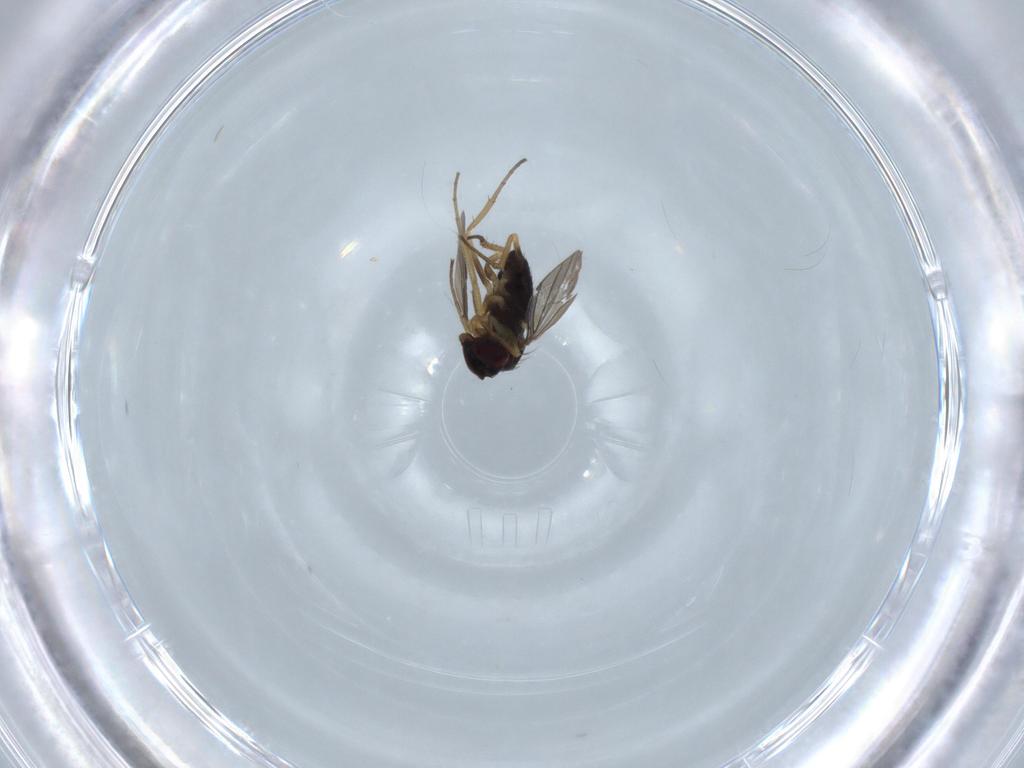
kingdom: Animalia
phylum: Arthropoda
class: Insecta
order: Diptera
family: Dolichopodidae
